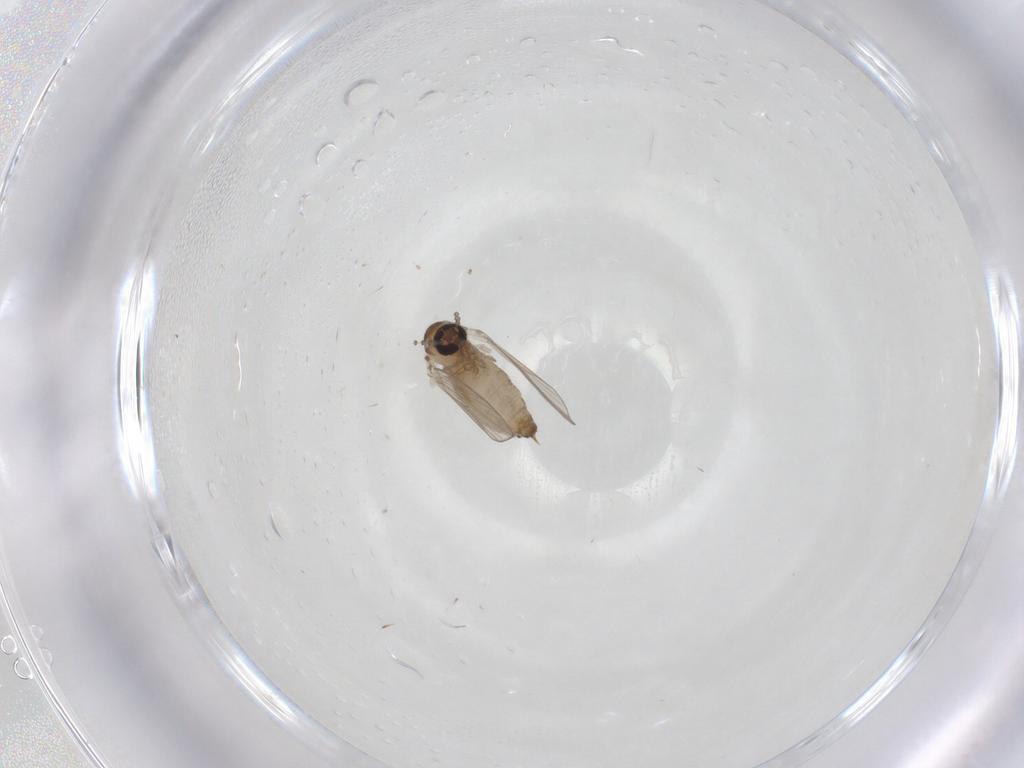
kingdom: Animalia
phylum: Arthropoda
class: Insecta
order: Diptera
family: Psychodidae
